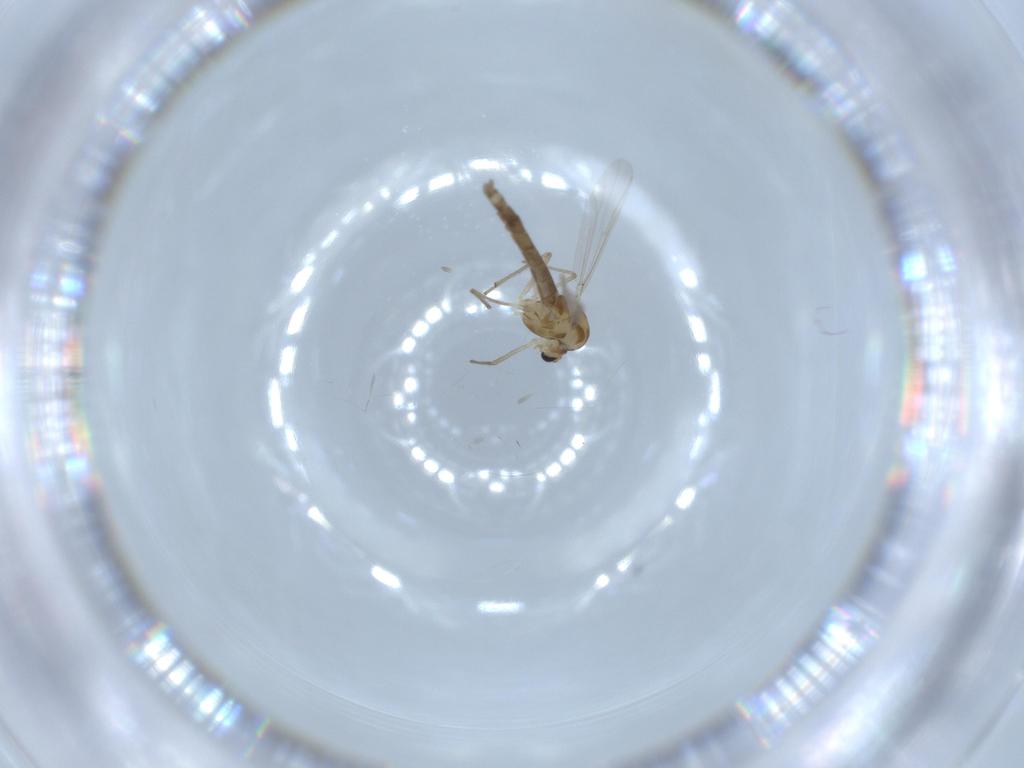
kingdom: Animalia
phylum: Arthropoda
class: Insecta
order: Diptera
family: Chironomidae
